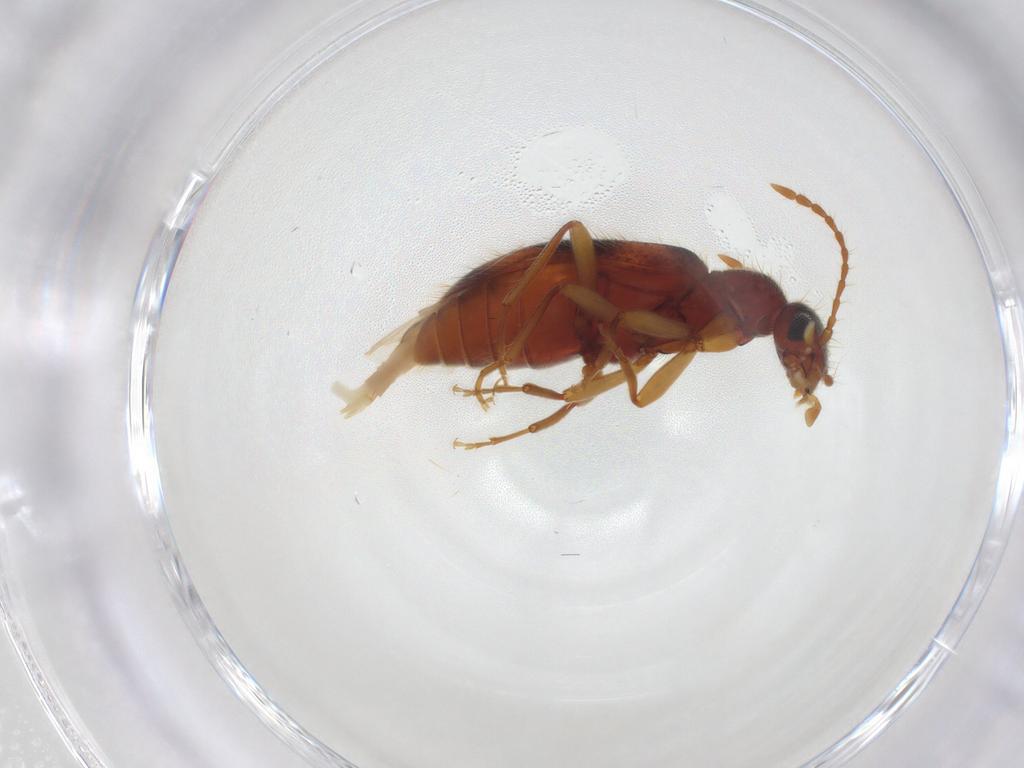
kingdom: Animalia
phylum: Arthropoda
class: Insecta
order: Coleoptera
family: Anthicidae
